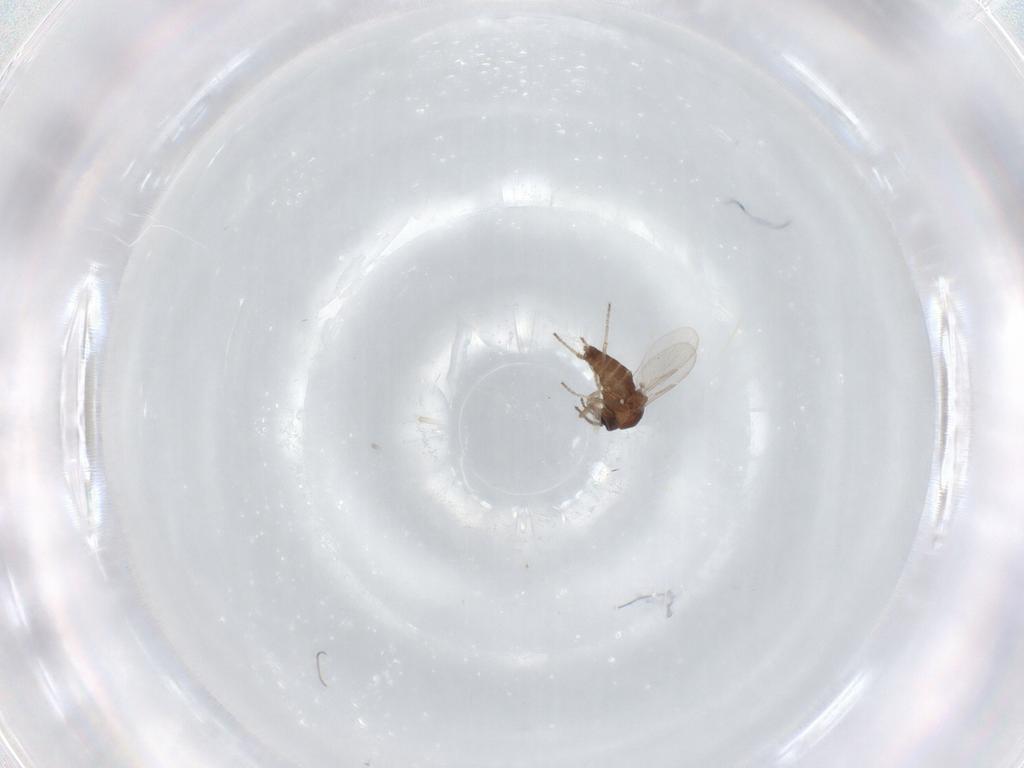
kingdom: Animalia
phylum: Arthropoda
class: Insecta
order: Diptera
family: Ceratopogonidae
